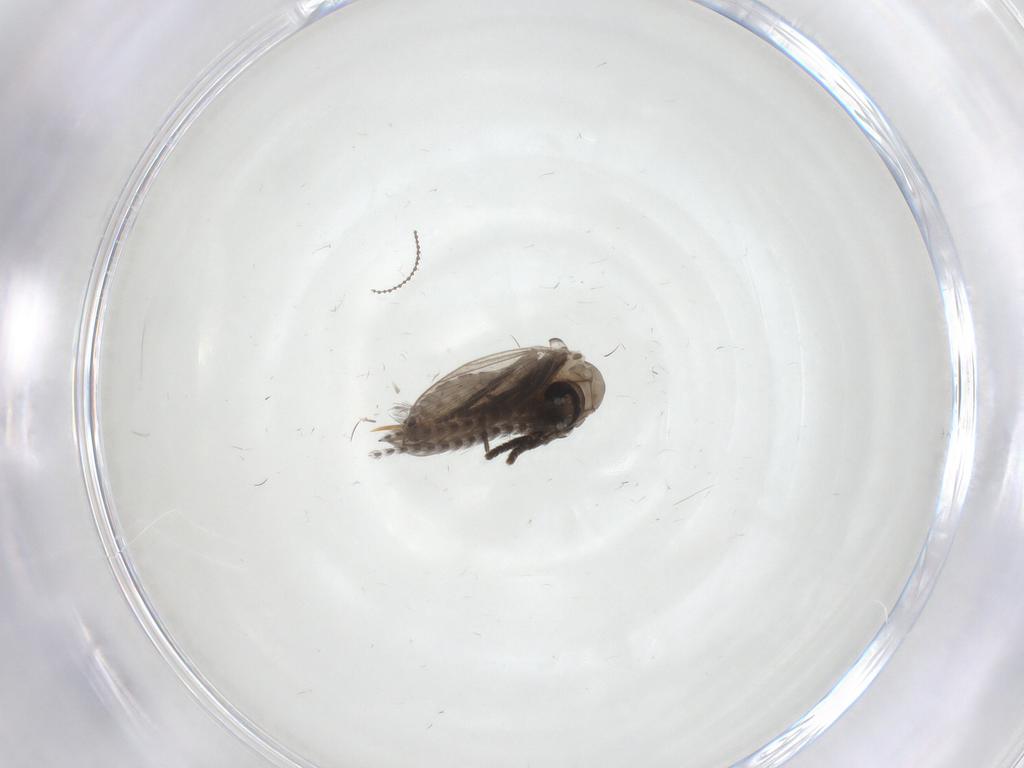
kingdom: Animalia
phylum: Arthropoda
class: Insecta
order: Diptera
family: Psychodidae
